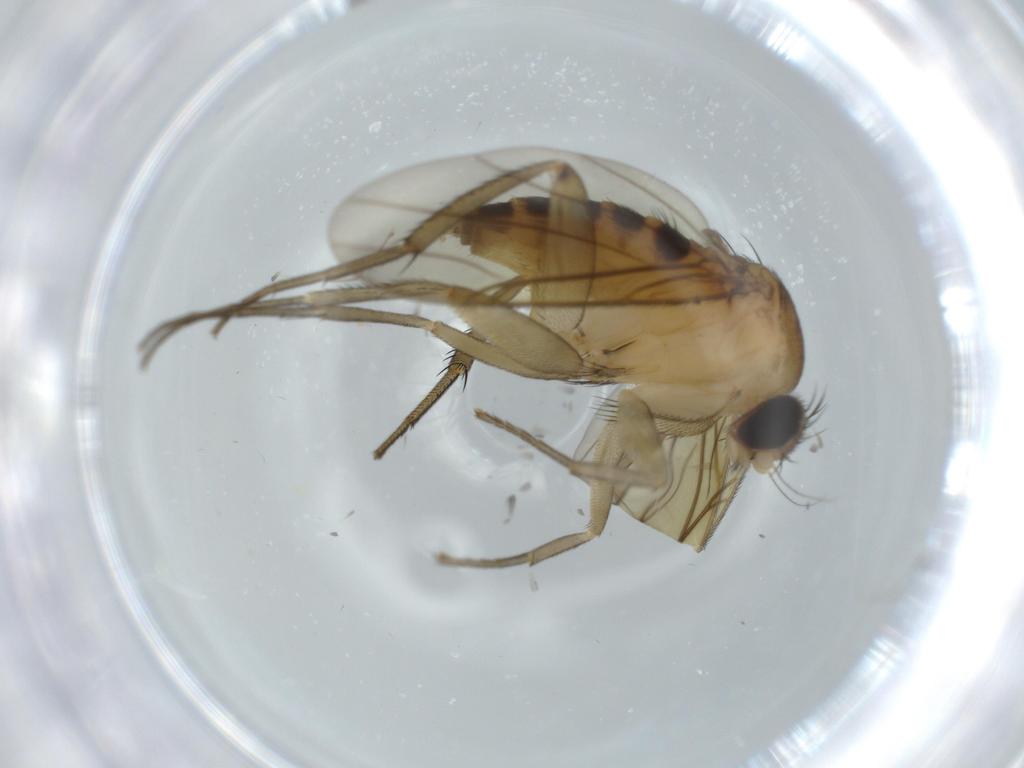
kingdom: Animalia
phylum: Arthropoda
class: Insecta
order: Diptera
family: Phoridae
